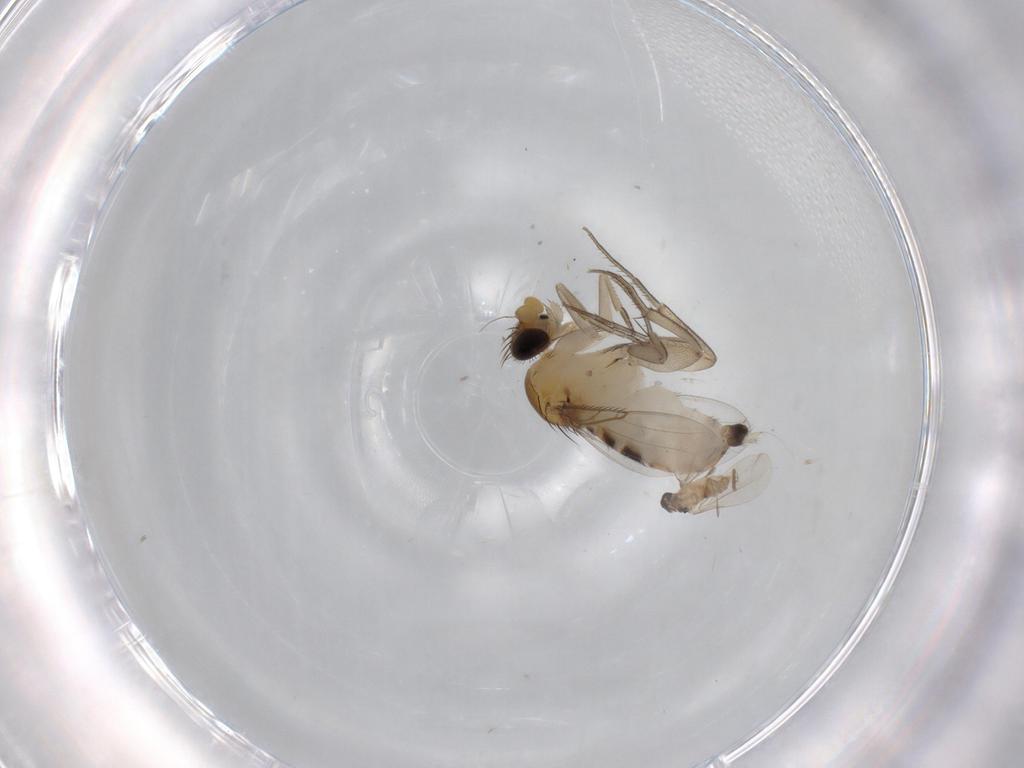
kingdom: Animalia
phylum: Arthropoda
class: Insecta
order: Diptera
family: Phoridae
